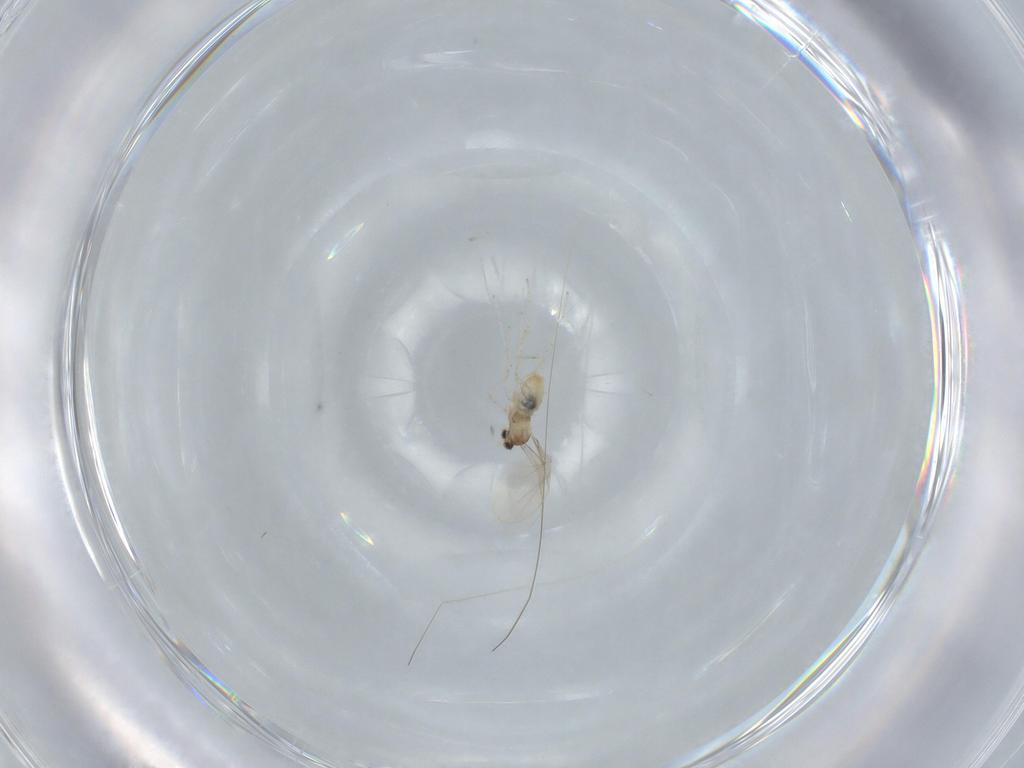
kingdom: Animalia
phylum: Arthropoda
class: Insecta
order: Diptera
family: Cecidomyiidae
